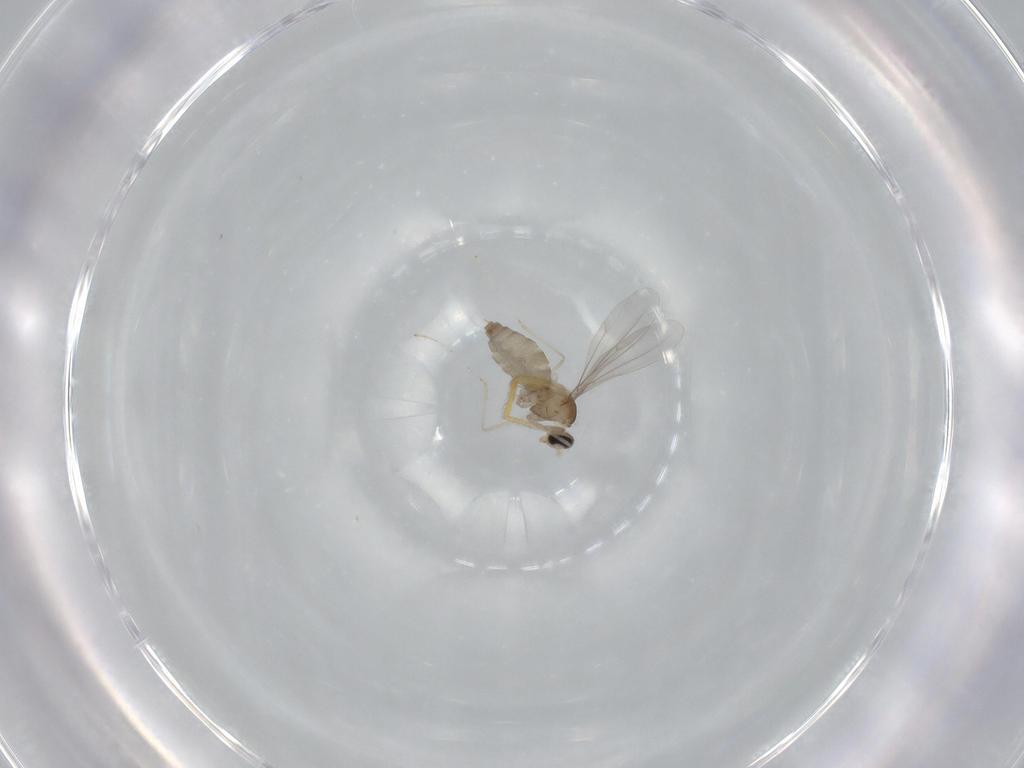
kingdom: Animalia
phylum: Arthropoda
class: Insecta
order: Diptera
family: Cecidomyiidae
